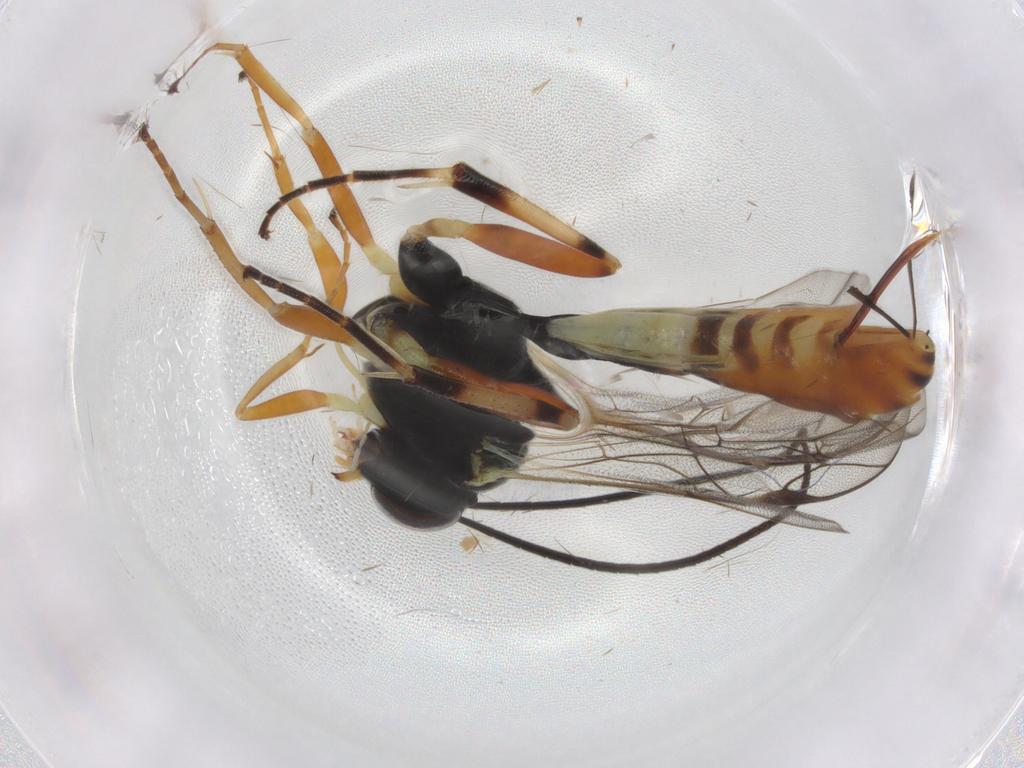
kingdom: Animalia
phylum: Arthropoda
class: Insecta
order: Hymenoptera
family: Ichneumonidae
